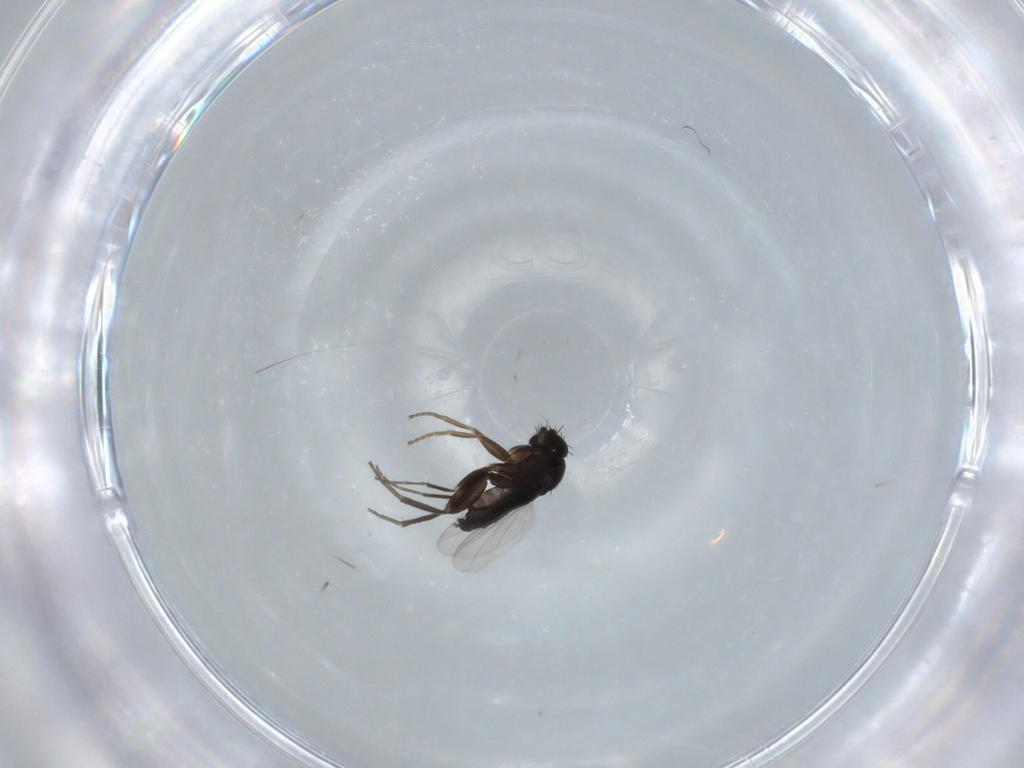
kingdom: Animalia
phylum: Arthropoda
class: Insecta
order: Diptera
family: Phoridae
